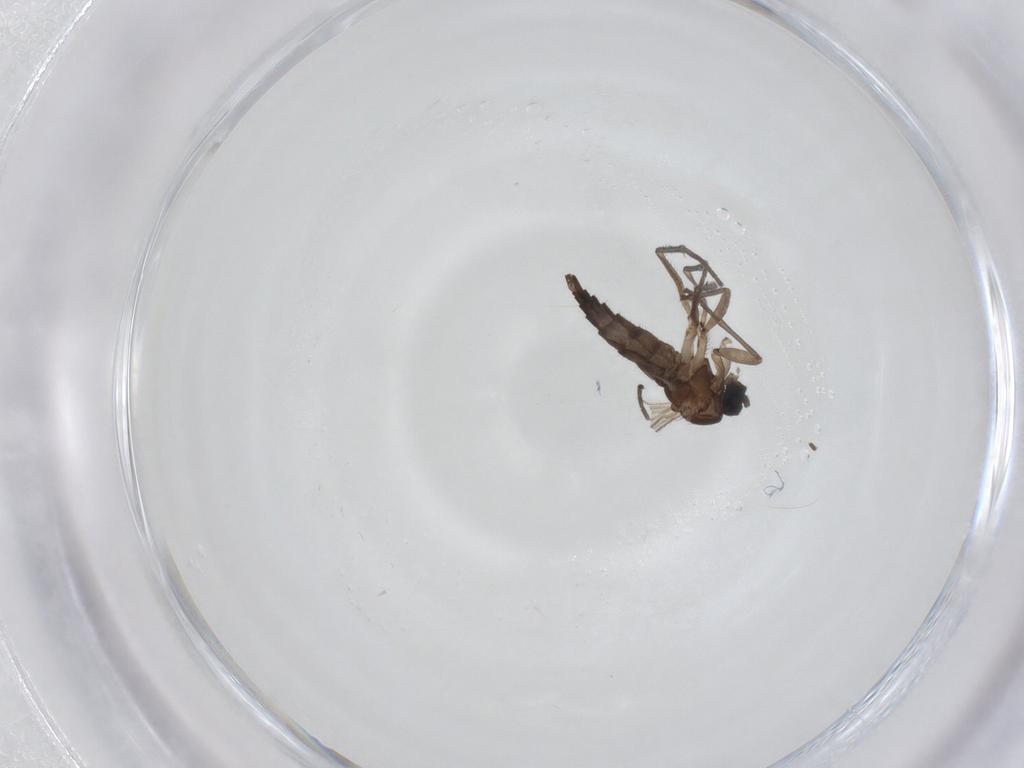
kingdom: Animalia
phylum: Arthropoda
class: Insecta
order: Diptera
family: Sciaridae
